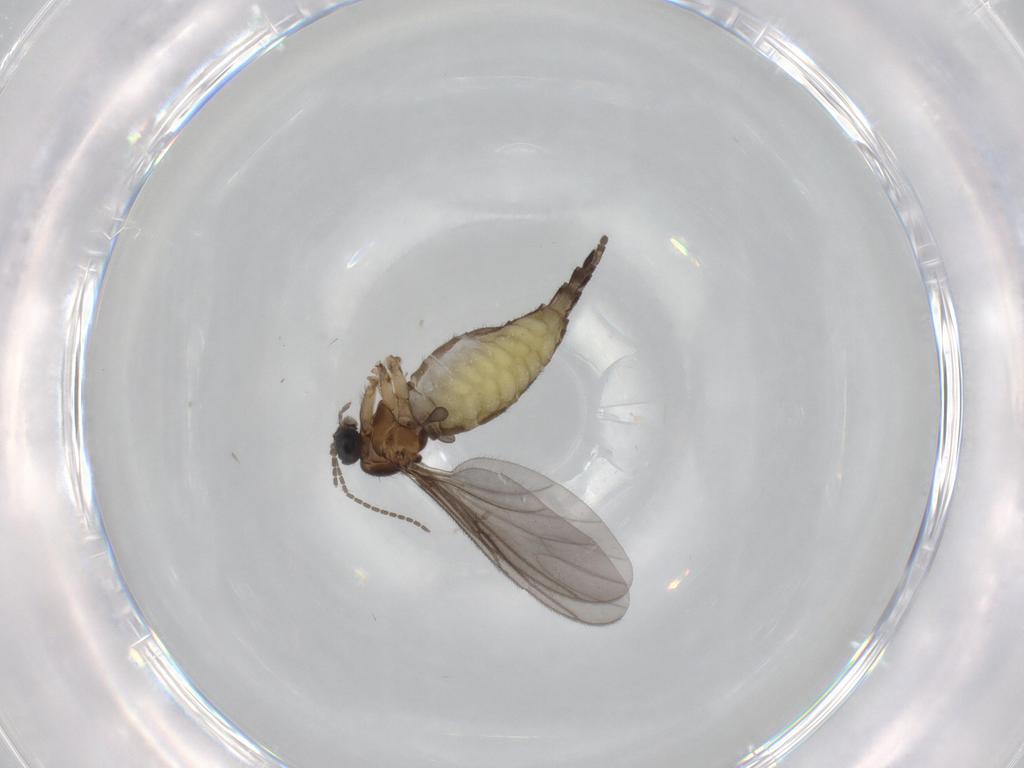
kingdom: Animalia
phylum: Arthropoda
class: Insecta
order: Diptera
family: Sciaridae
